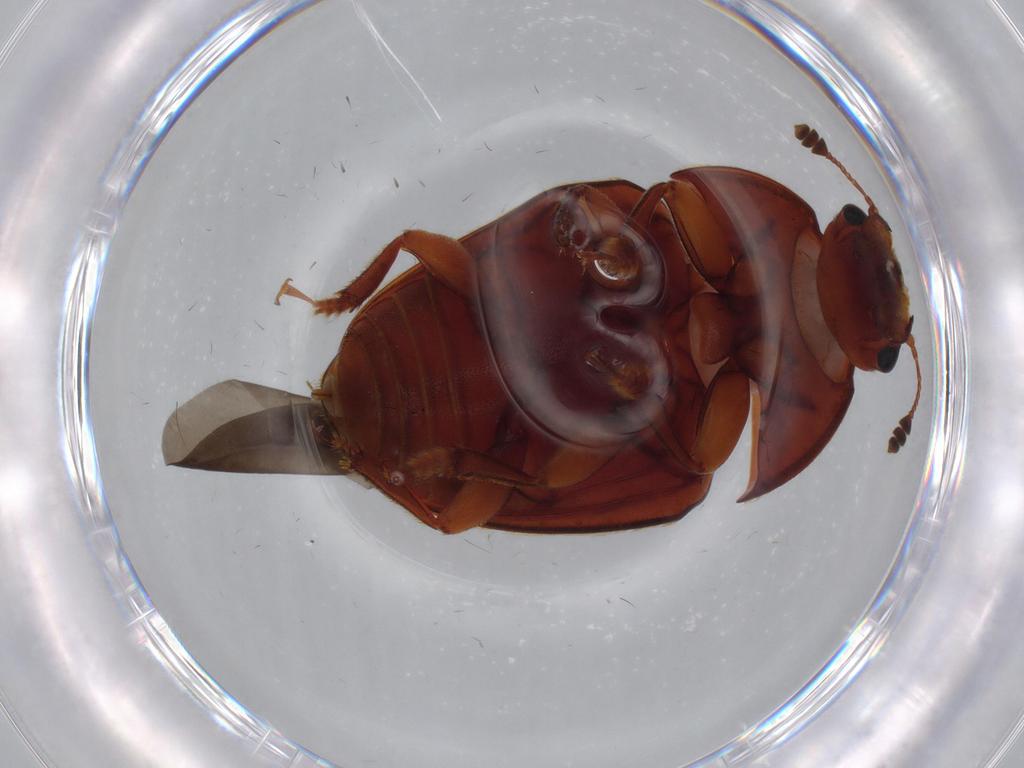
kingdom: Animalia
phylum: Arthropoda
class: Insecta
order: Coleoptera
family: Nitidulidae
